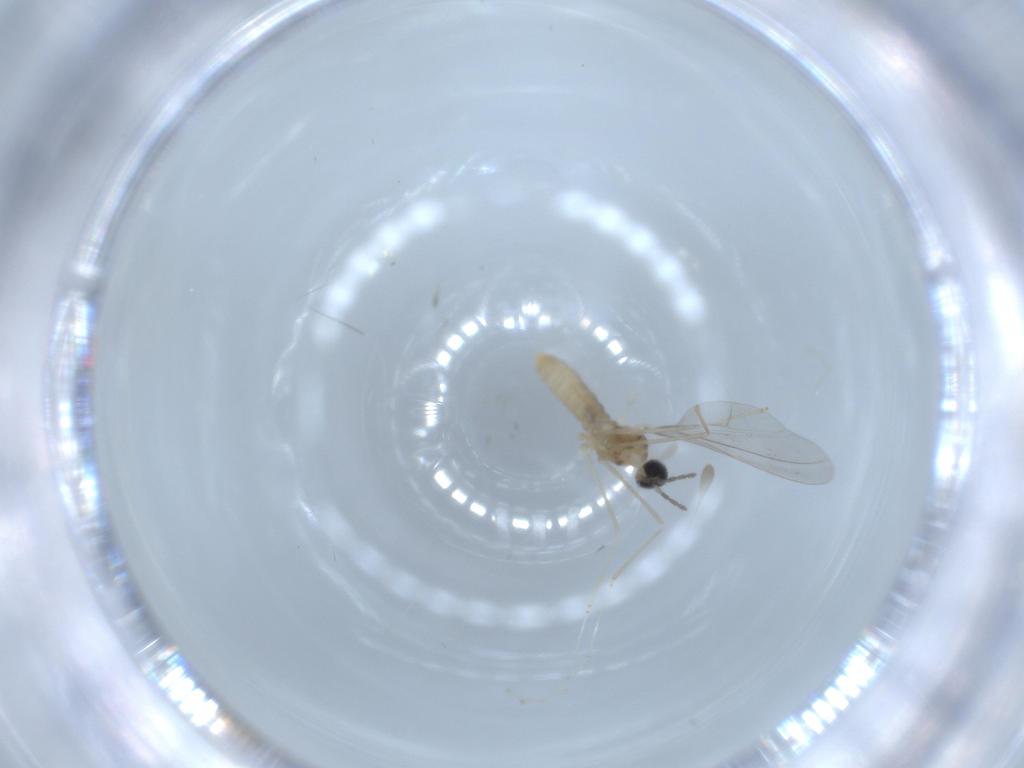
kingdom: Animalia
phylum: Arthropoda
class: Insecta
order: Diptera
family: Cecidomyiidae
